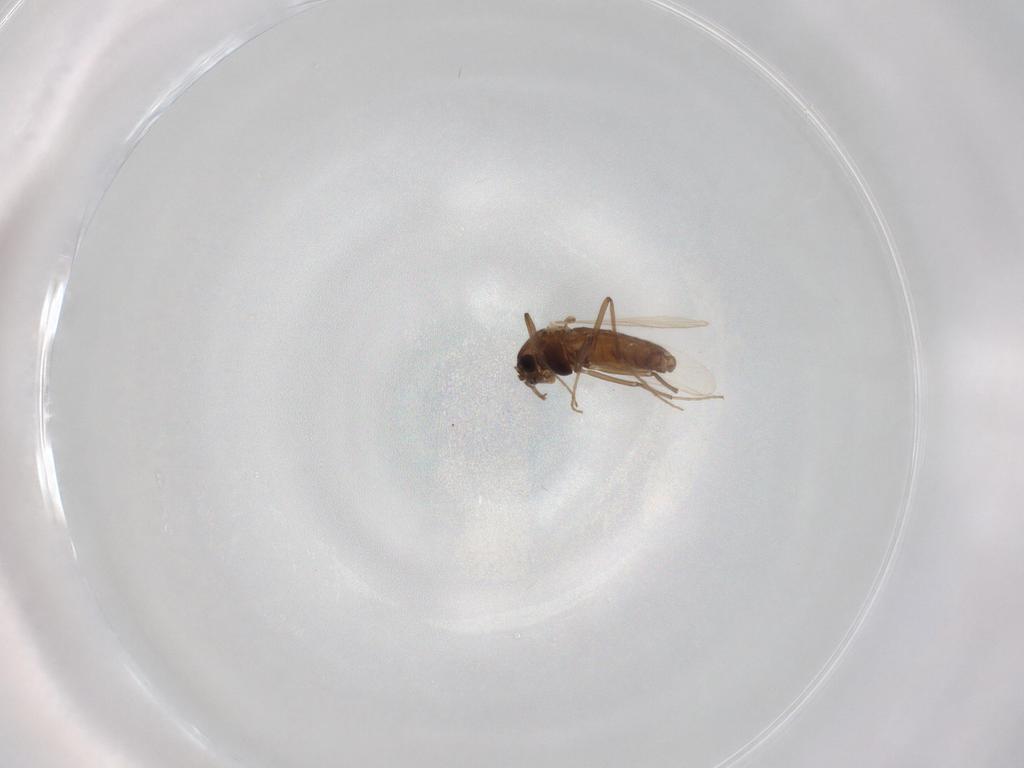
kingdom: Animalia
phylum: Arthropoda
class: Insecta
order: Diptera
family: Chironomidae
